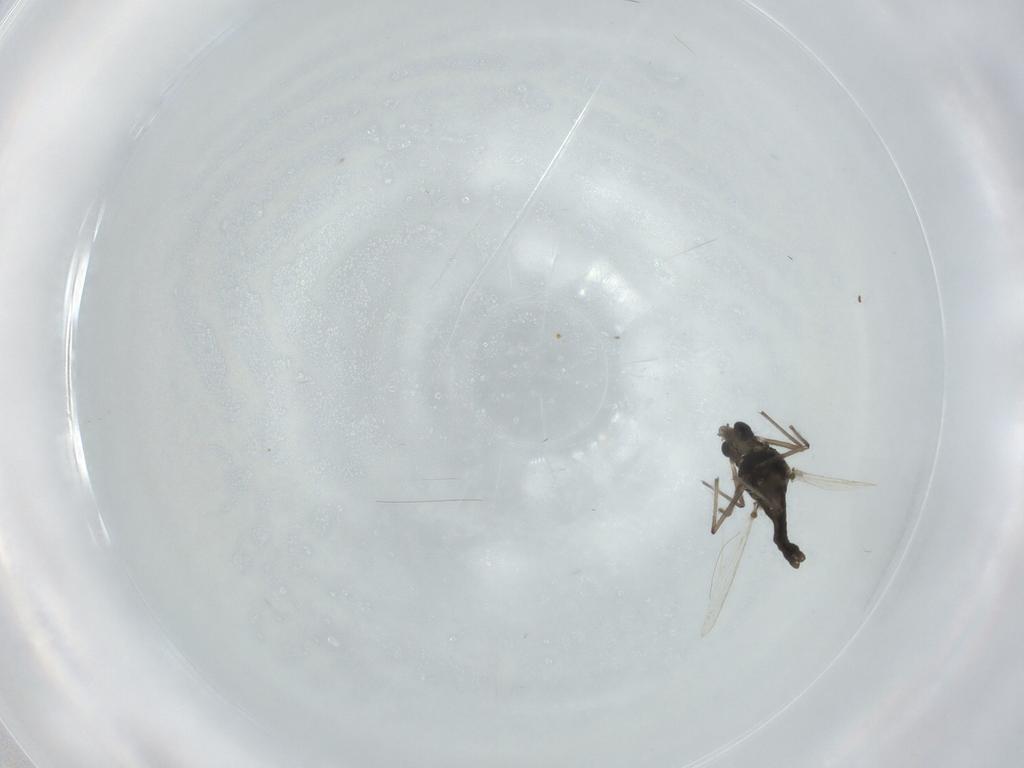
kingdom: Animalia
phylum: Arthropoda
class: Insecta
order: Diptera
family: Chironomidae
